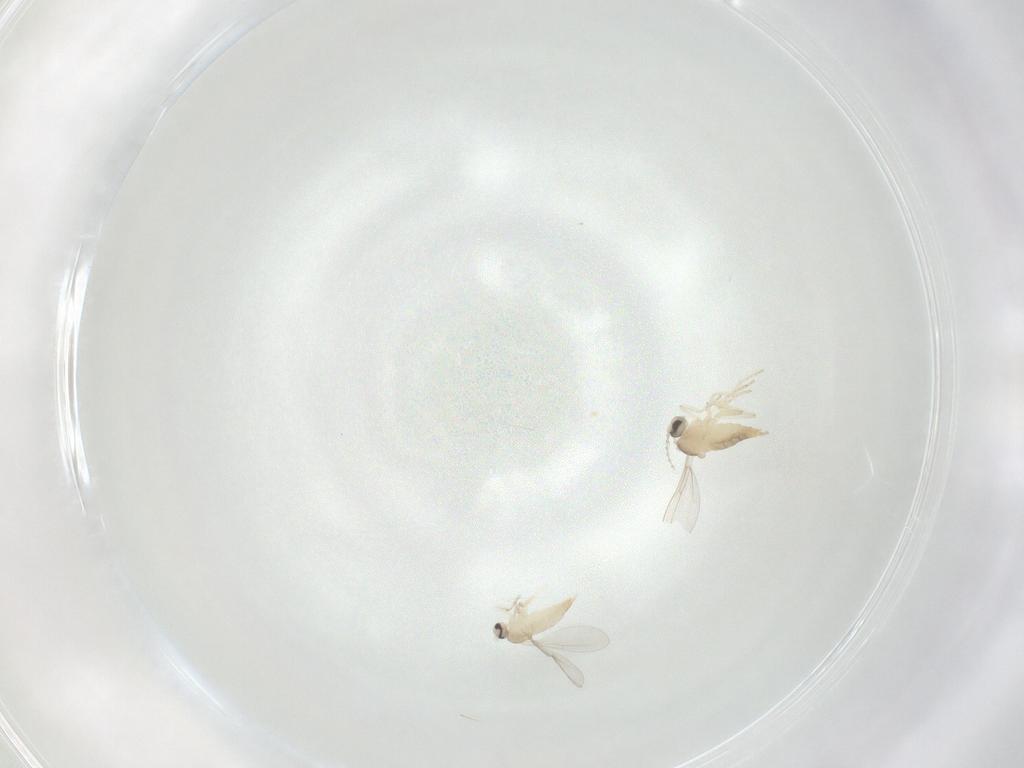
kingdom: Animalia
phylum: Arthropoda
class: Insecta
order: Diptera
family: Cecidomyiidae
